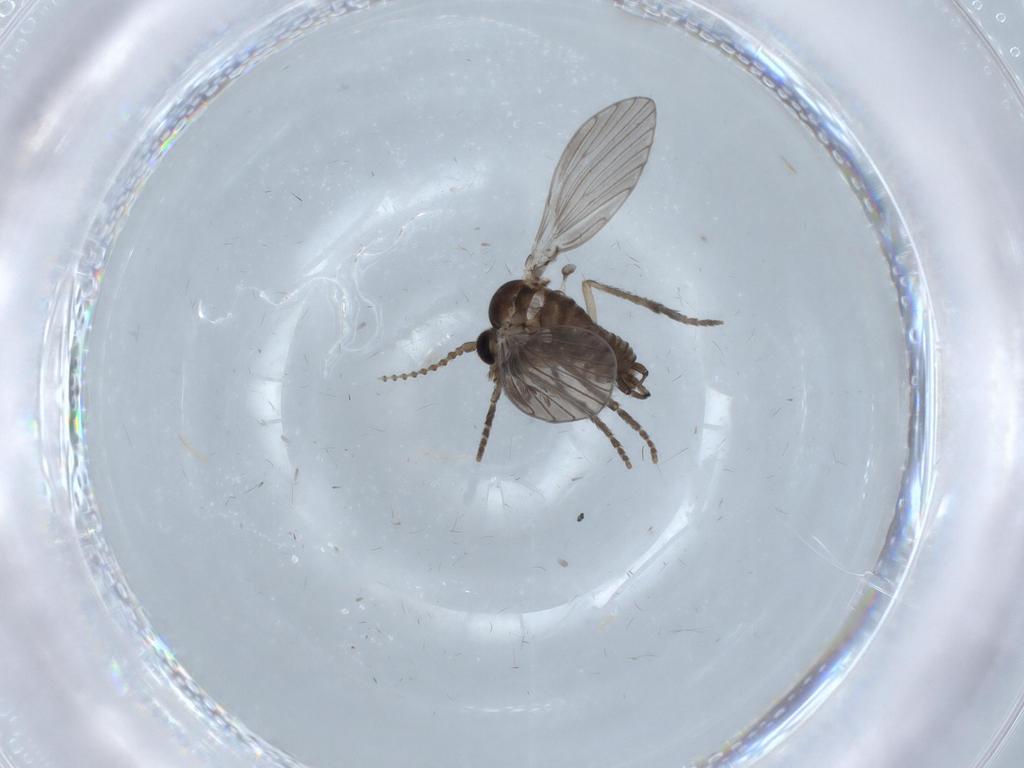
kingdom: Animalia
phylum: Arthropoda
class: Insecta
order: Diptera
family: Psychodidae
